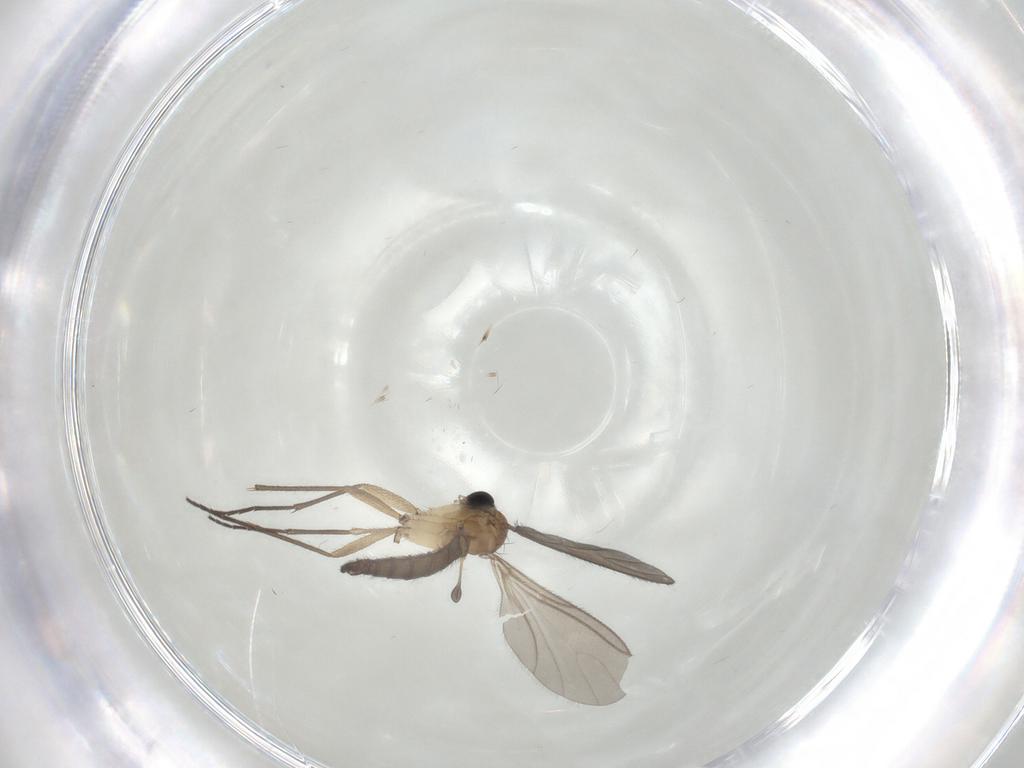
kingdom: Animalia
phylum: Arthropoda
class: Insecta
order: Diptera
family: Sciaridae
